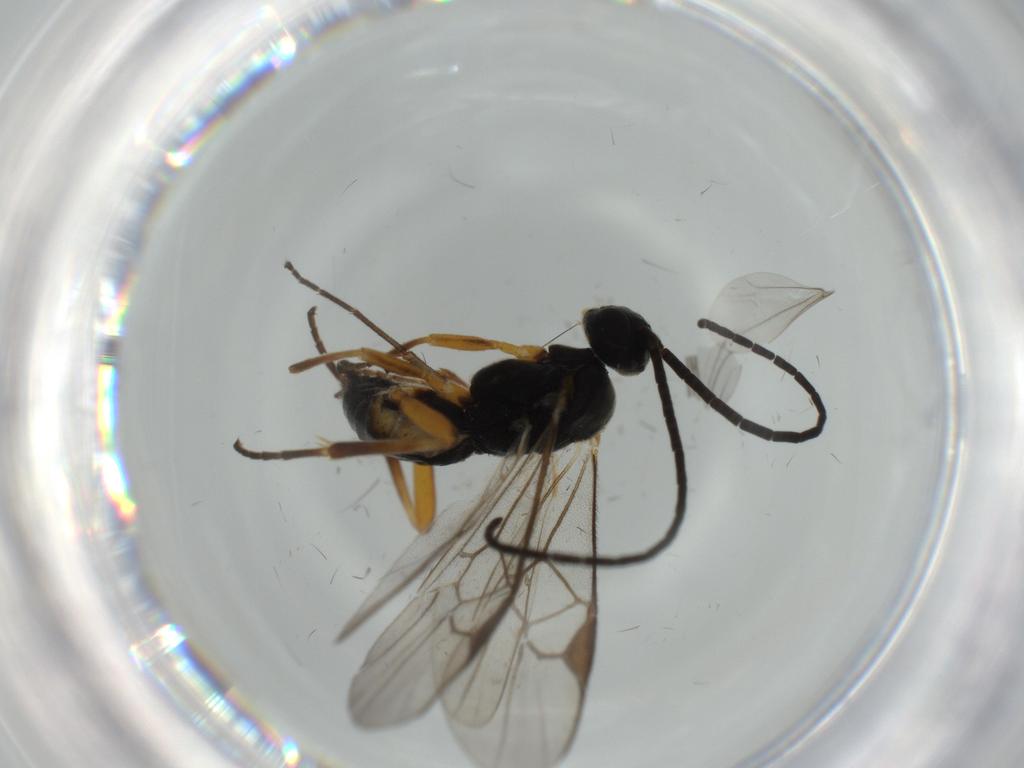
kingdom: Animalia
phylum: Arthropoda
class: Insecta
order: Hymenoptera
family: Braconidae
